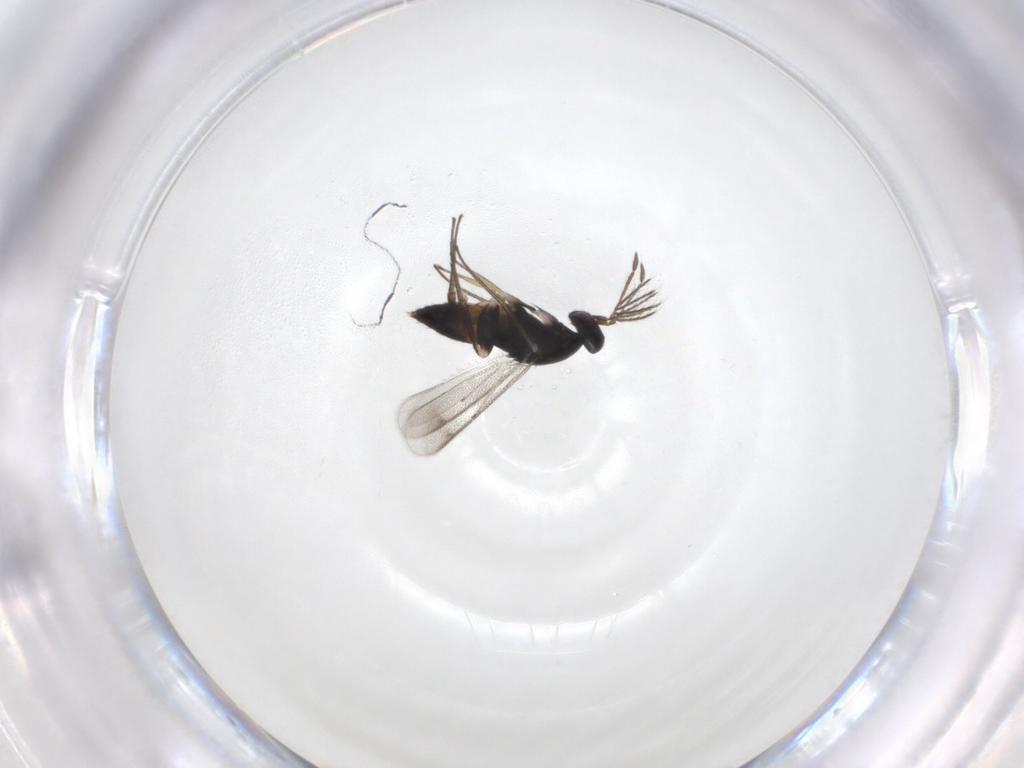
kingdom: Animalia
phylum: Arthropoda
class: Insecta
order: Hymenoptera
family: Eulophidae
